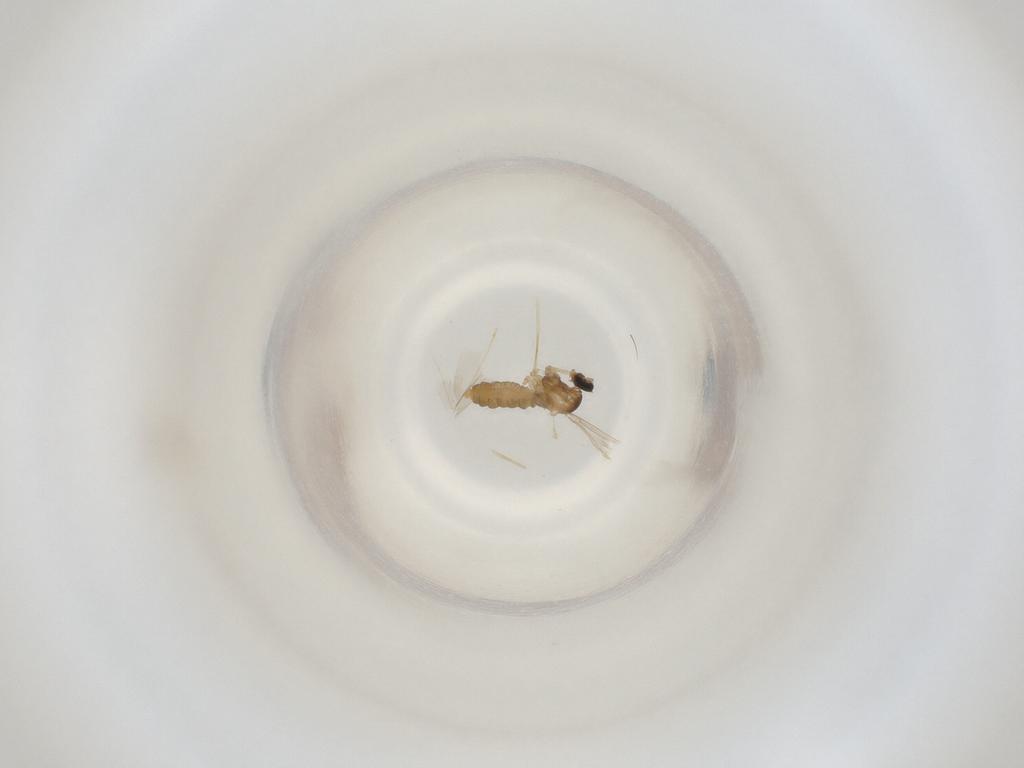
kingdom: Animalia
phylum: Arthropoda
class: Insecta
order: Diptera
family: Cecidomyiidae
